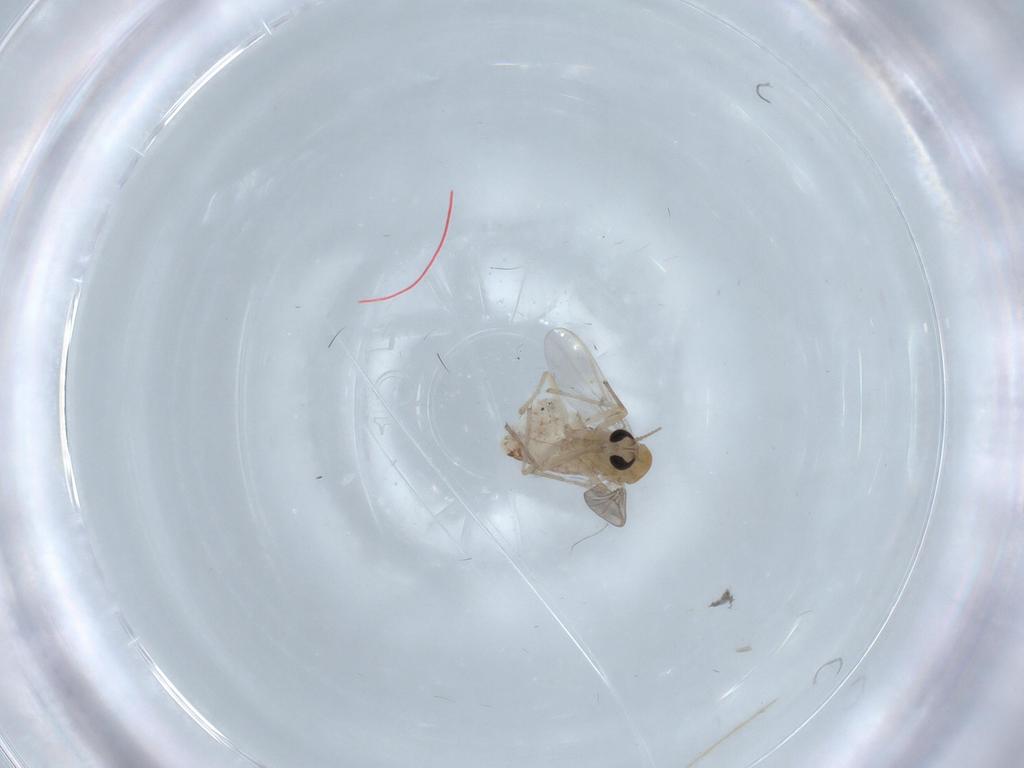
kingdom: Animalia
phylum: Arthropoda
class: Insecta
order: Diptera
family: Chironomidae
